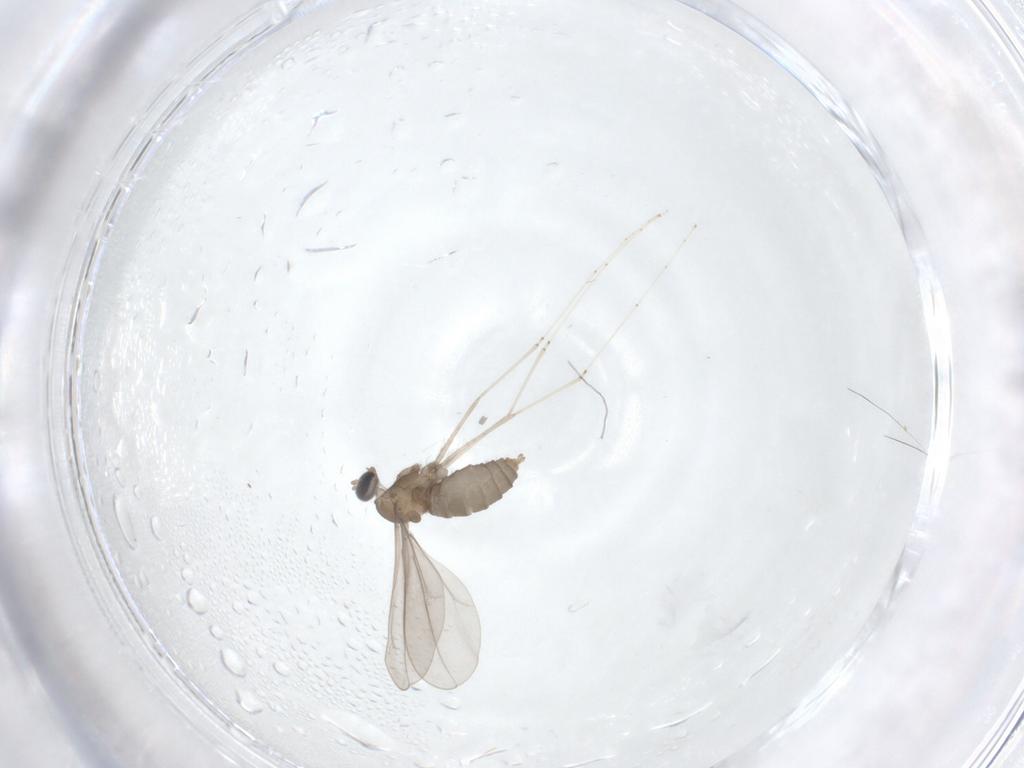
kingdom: Animalia
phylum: Arthropoda
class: Insecta
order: Diptera
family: Cecidomyiidae
